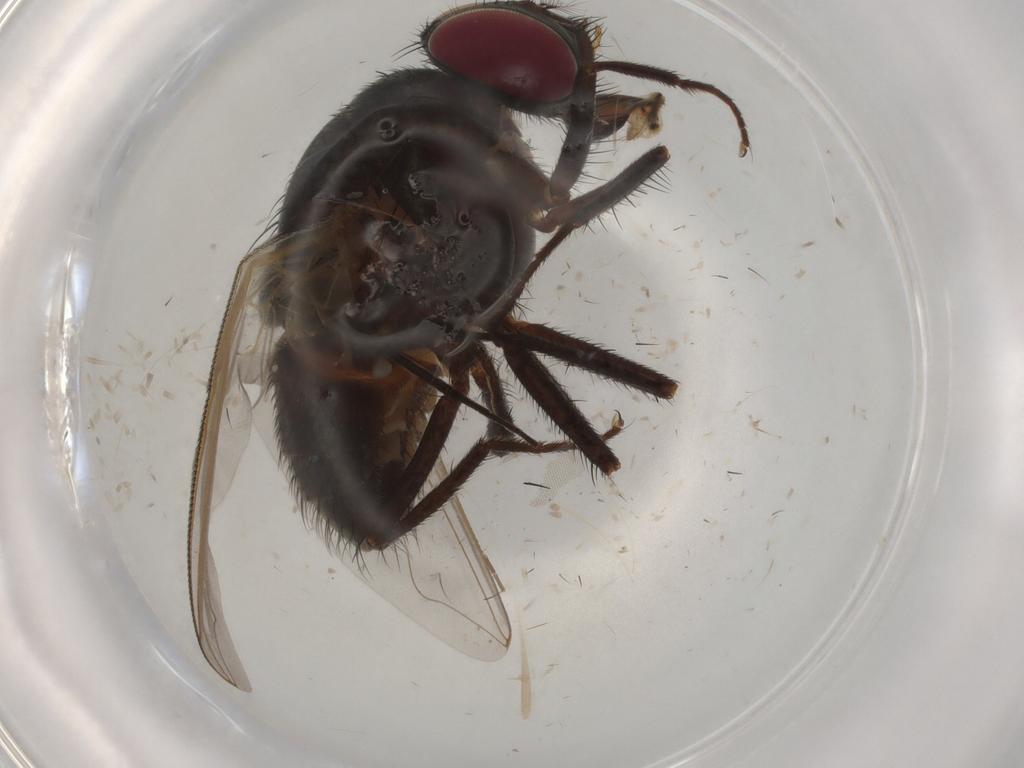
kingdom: Animalia
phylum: Arthropoda
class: Insecta
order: Diptera
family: Dolichopodidae
